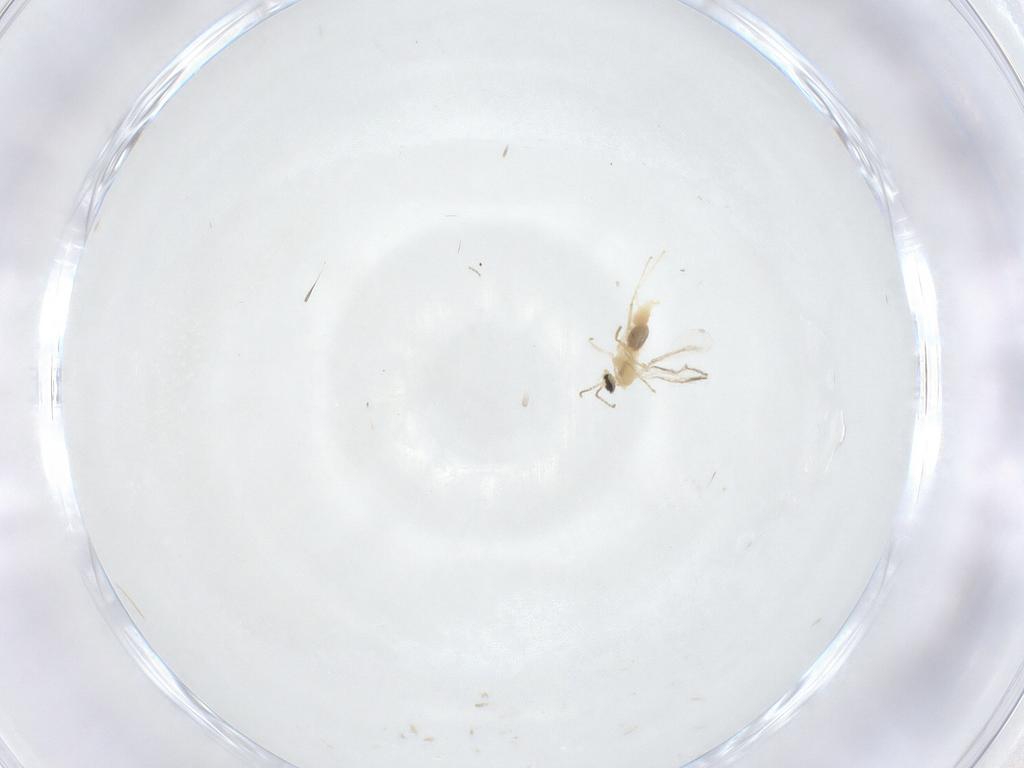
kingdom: Animalia
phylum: Arthropoda
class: Insecta
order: Diptera
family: Cecidomyiidae
